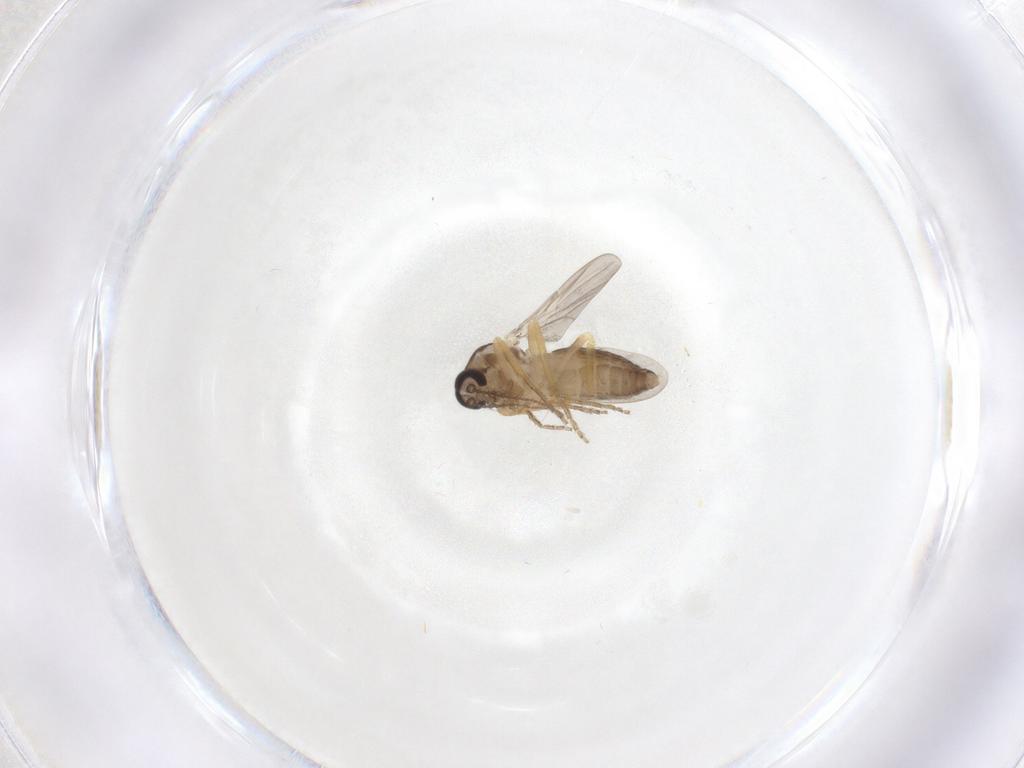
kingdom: Animalia
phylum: Arthropoda
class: Insecta
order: Diptera
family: Ceratopogonidae
